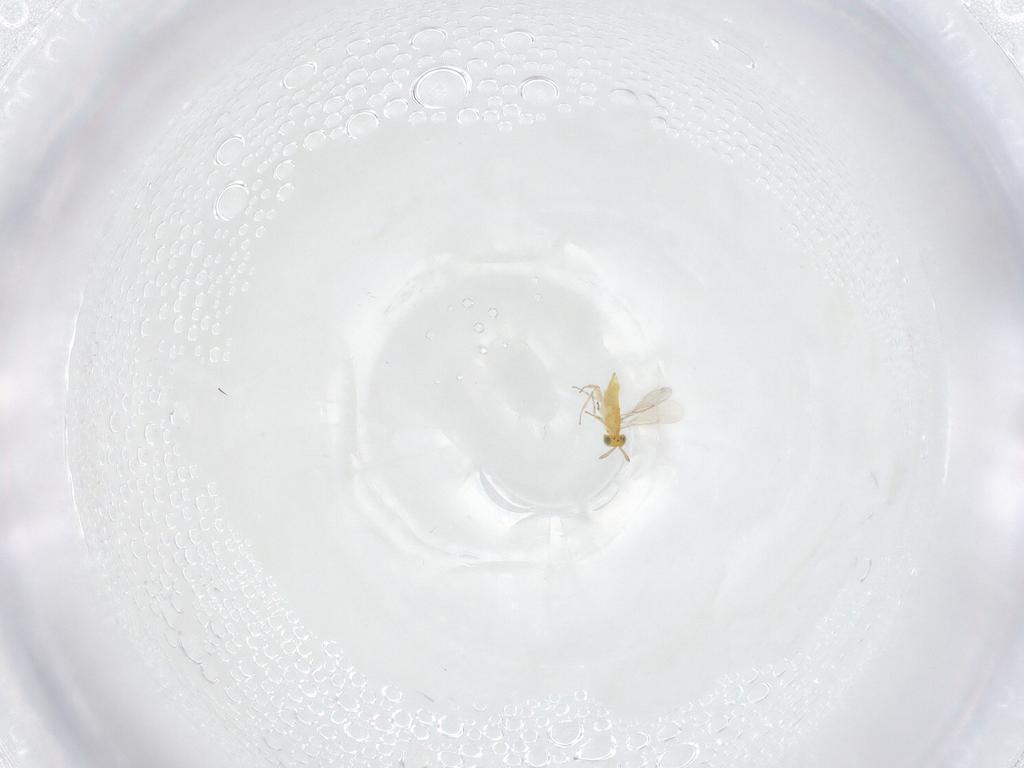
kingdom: Animalia
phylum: Arthropoda
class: Insecta
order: Hymenoptera
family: Aphelinidae
